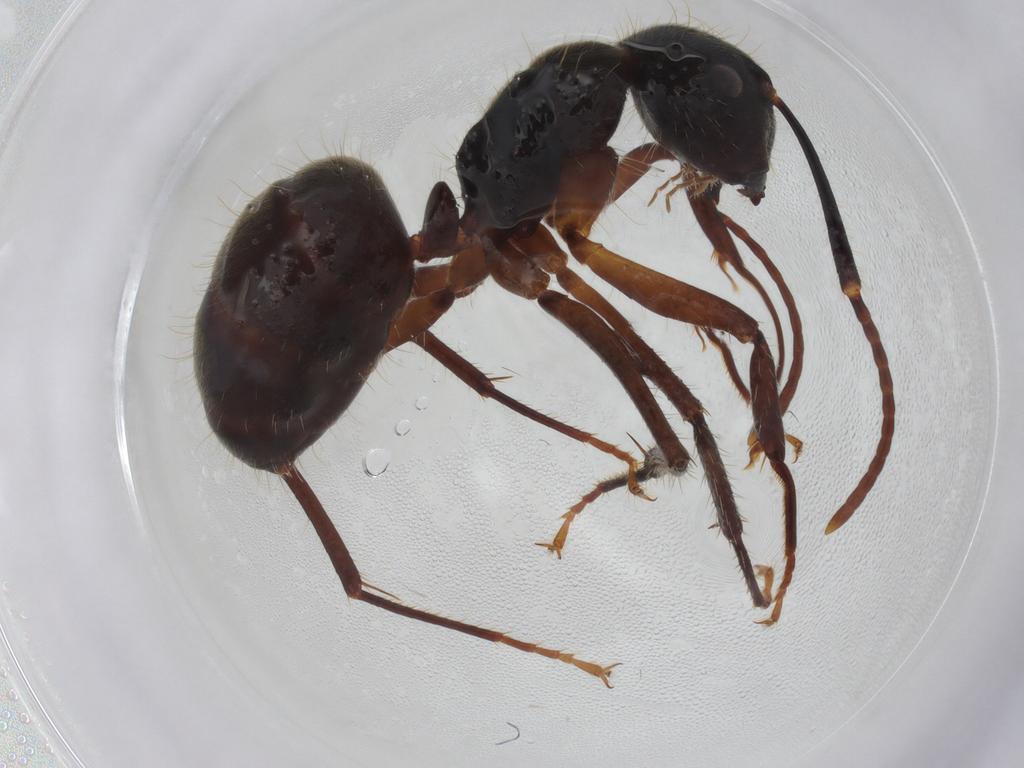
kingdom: Animalia
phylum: Arthropoda
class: Insecta
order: Hymenoptera
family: Formicidae
